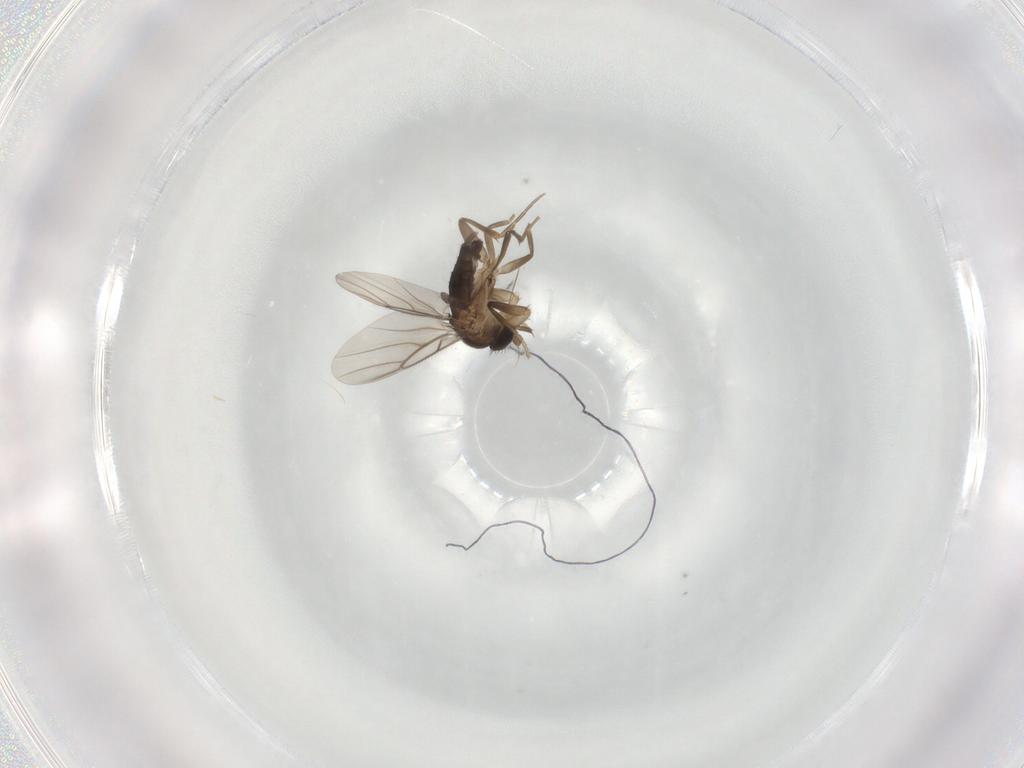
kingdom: Animalia
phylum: Arthropoda
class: Insecta
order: Diptera
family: Phoridae
